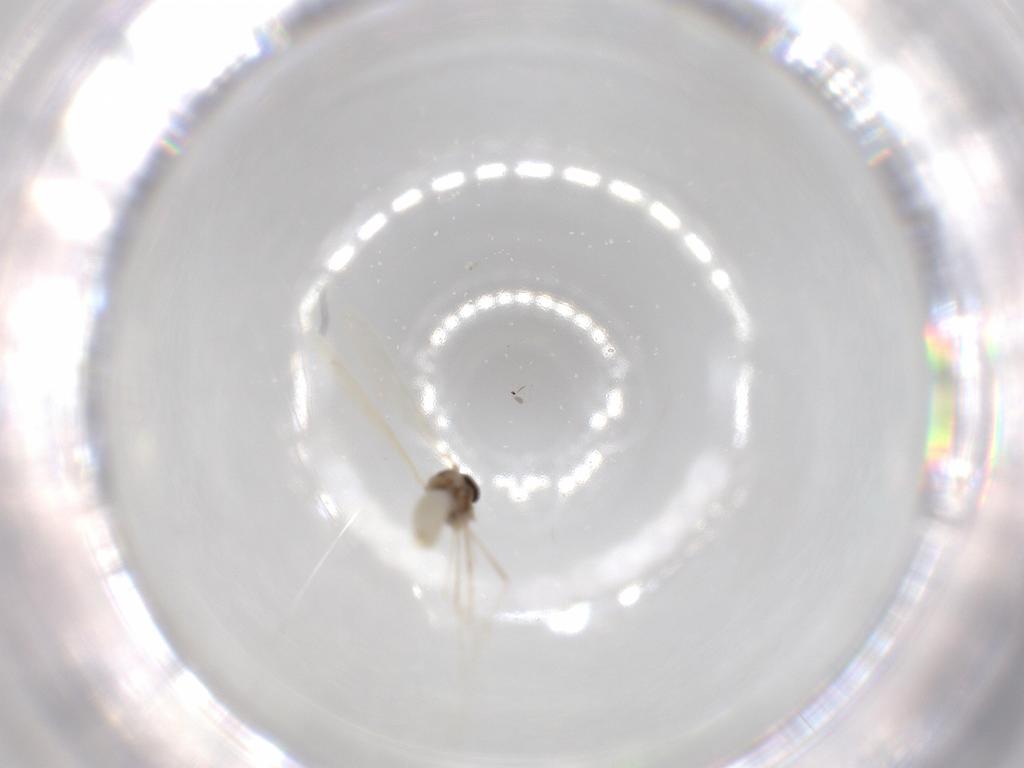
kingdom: Animalia
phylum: Arthropoda
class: Insecta
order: Diptera
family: Cecidomyiidae
